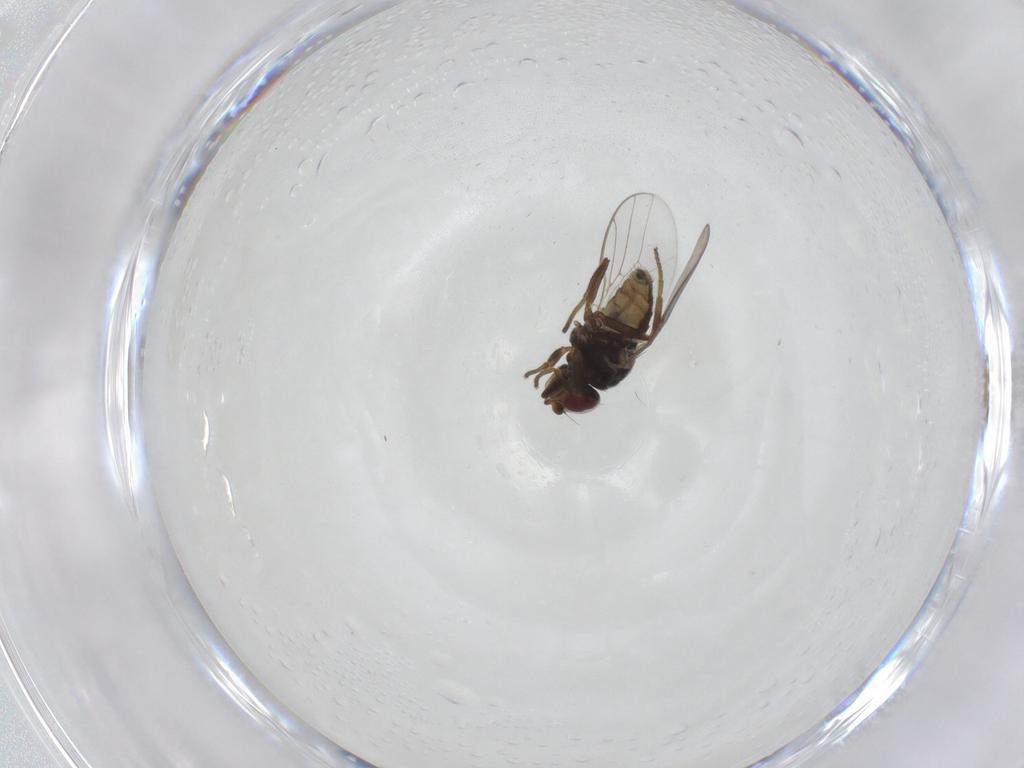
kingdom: Animalia
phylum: Arthropoda
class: Insecta
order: Diptera
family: Chloropidae
